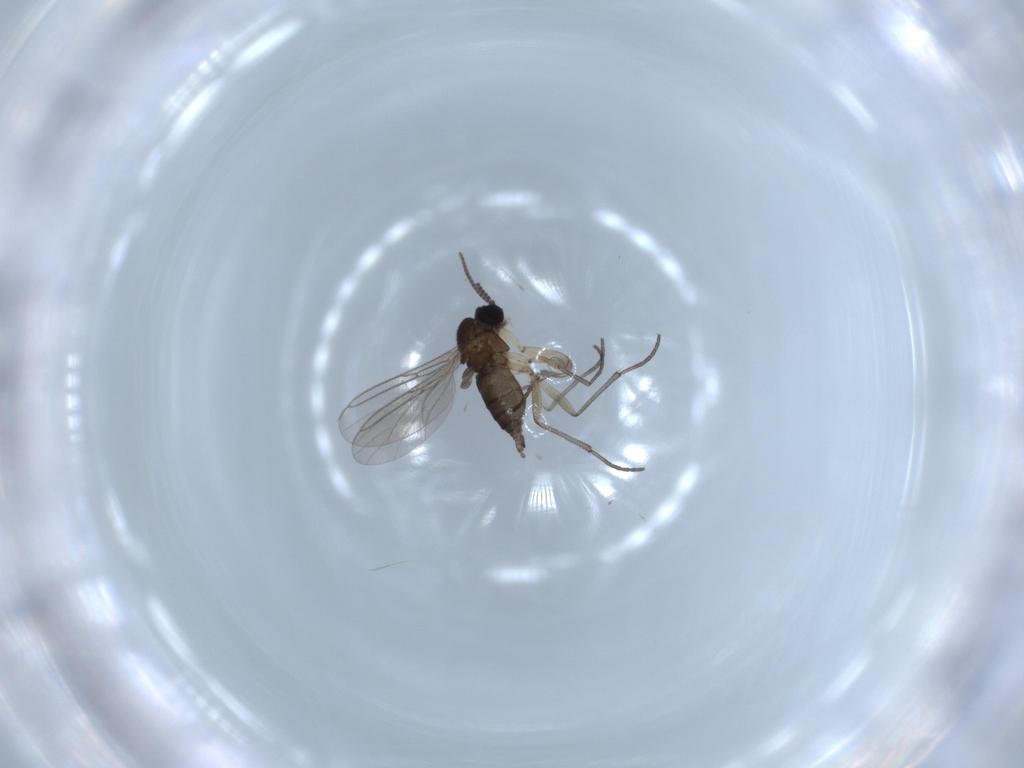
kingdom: Animalia
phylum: Arthropoda
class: Insecta
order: Diptera
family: Sciaridae
